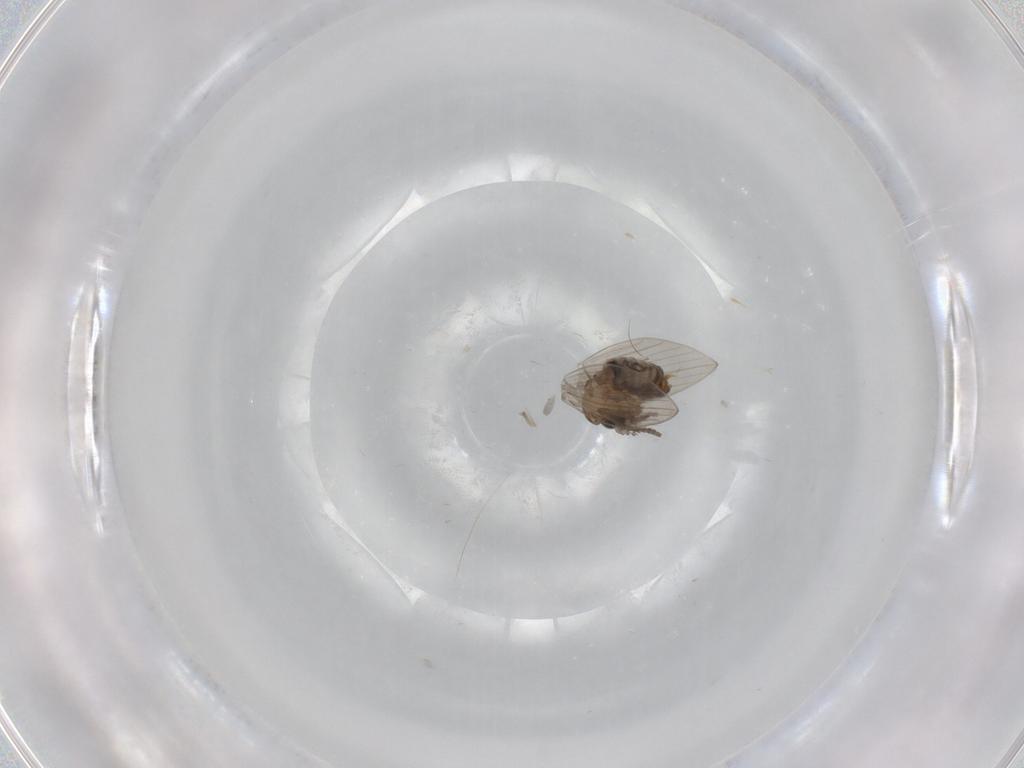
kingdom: Animalia
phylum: Arthropoda
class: Insecta
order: Diptera
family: Psychodidae
